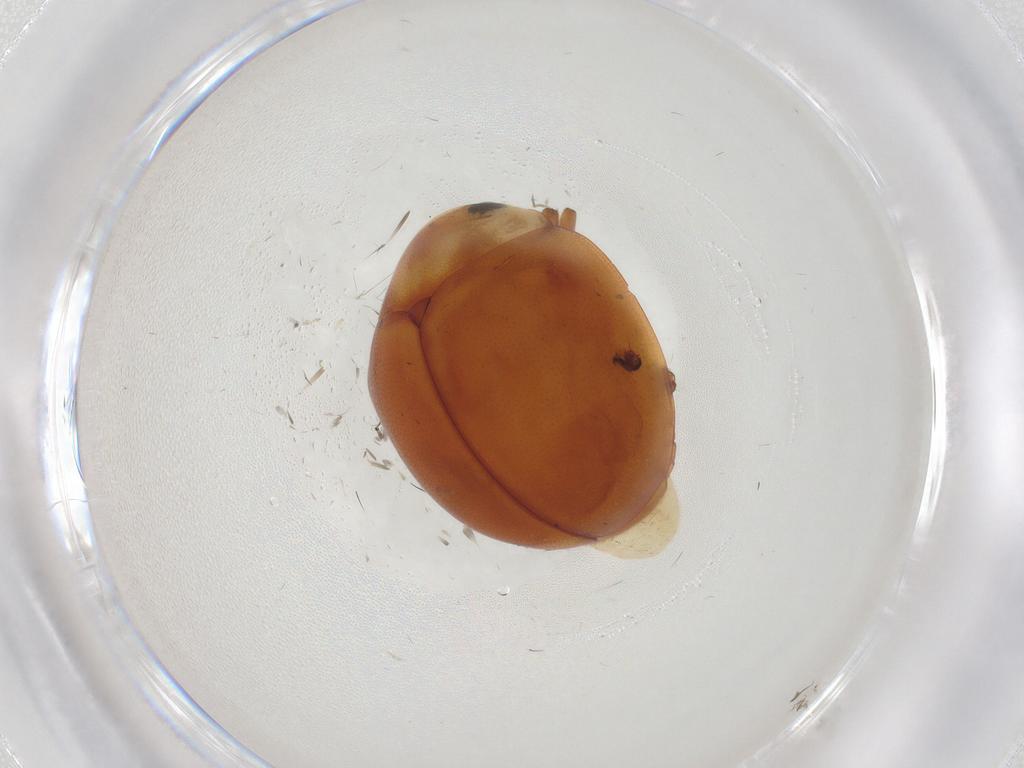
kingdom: Animalia
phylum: Arthropoda
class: Insecta
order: Coleoptera
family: Coccinellidae
